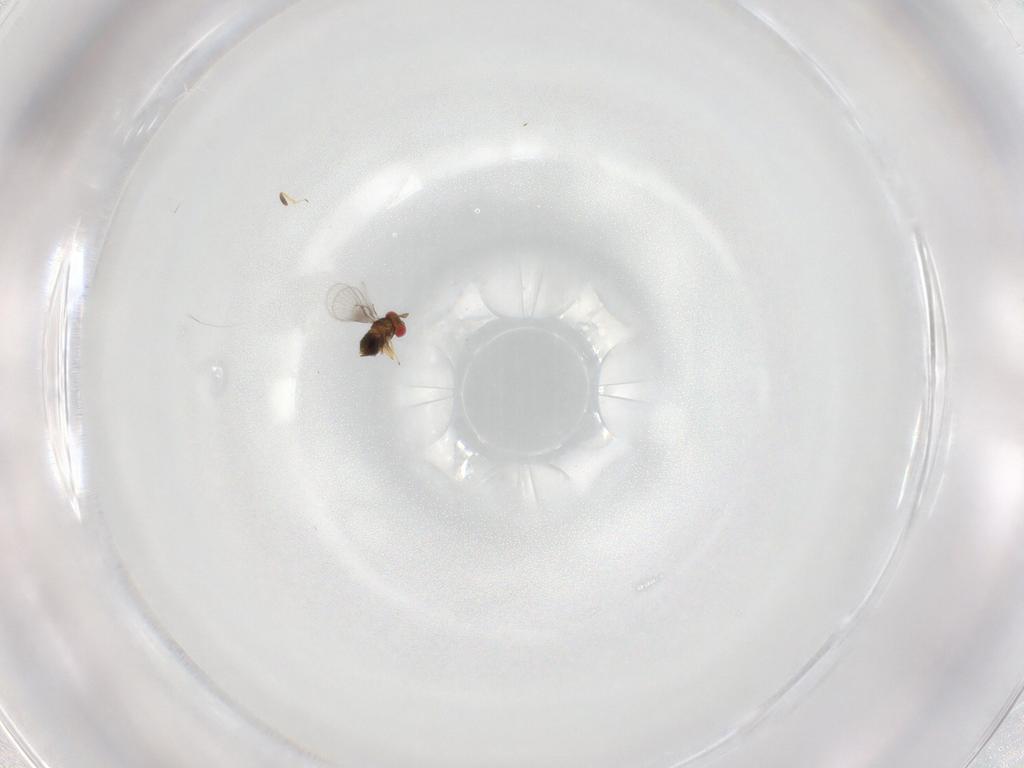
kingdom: Animalia
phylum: Arthropoda
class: Insecta
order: Hymenoptera
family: Trichogrammatidae
